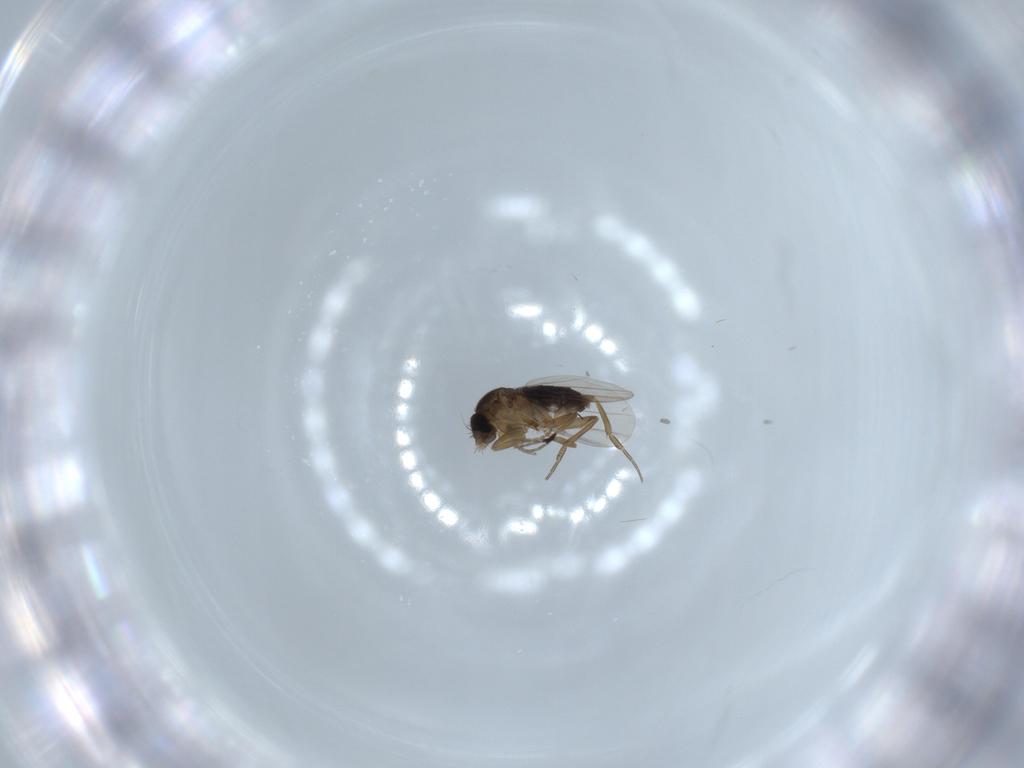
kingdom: Animalia
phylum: Arthropoda
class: Insecta
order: Diptera
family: Phoridae
